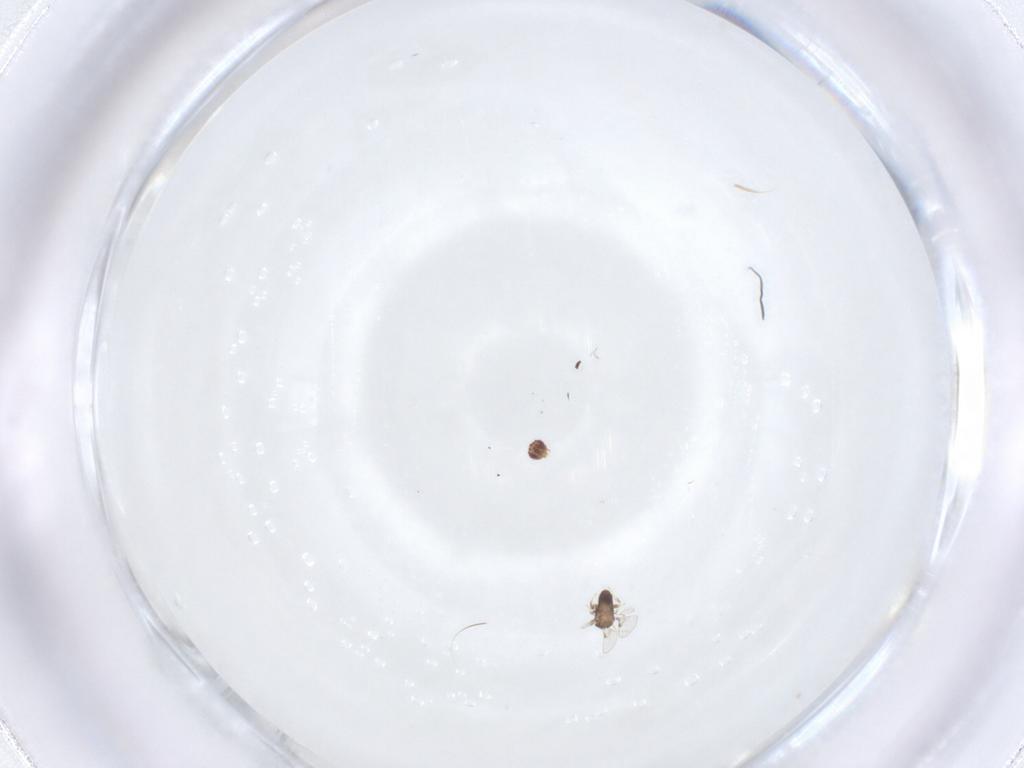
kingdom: Animalia
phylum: Arthropoda
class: Insecta
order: Hymenoptera
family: Trichogrammatidae
